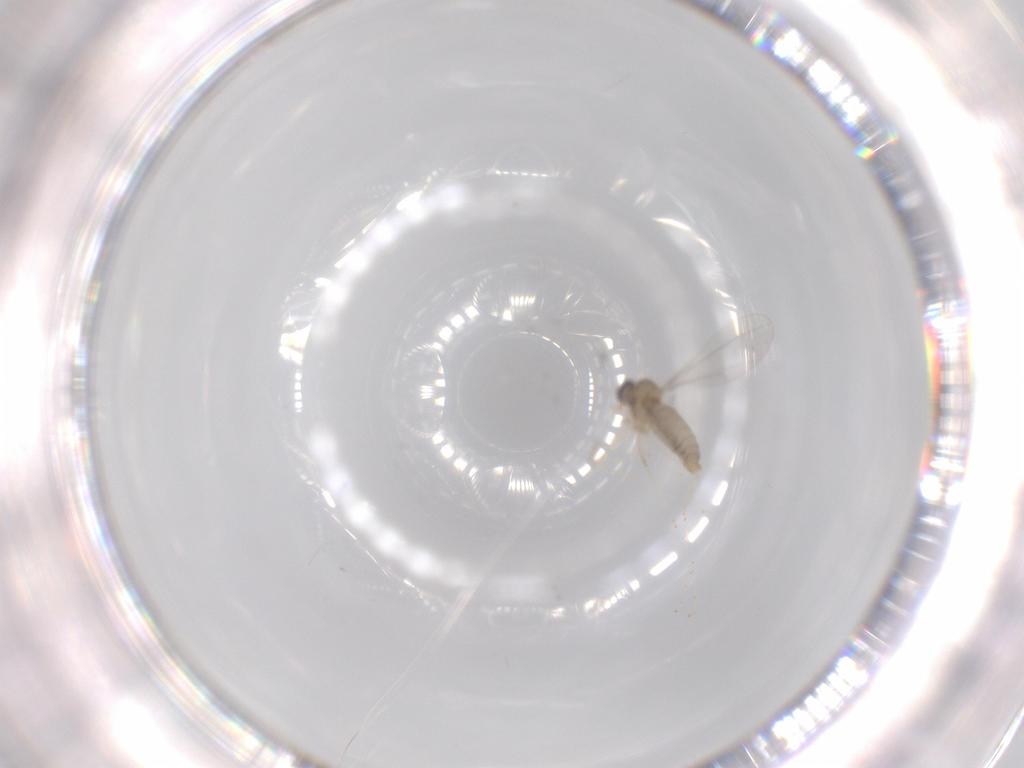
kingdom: Animalia
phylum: Arthropoda
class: Insecta
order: Diptera
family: Cecidomyiidae
